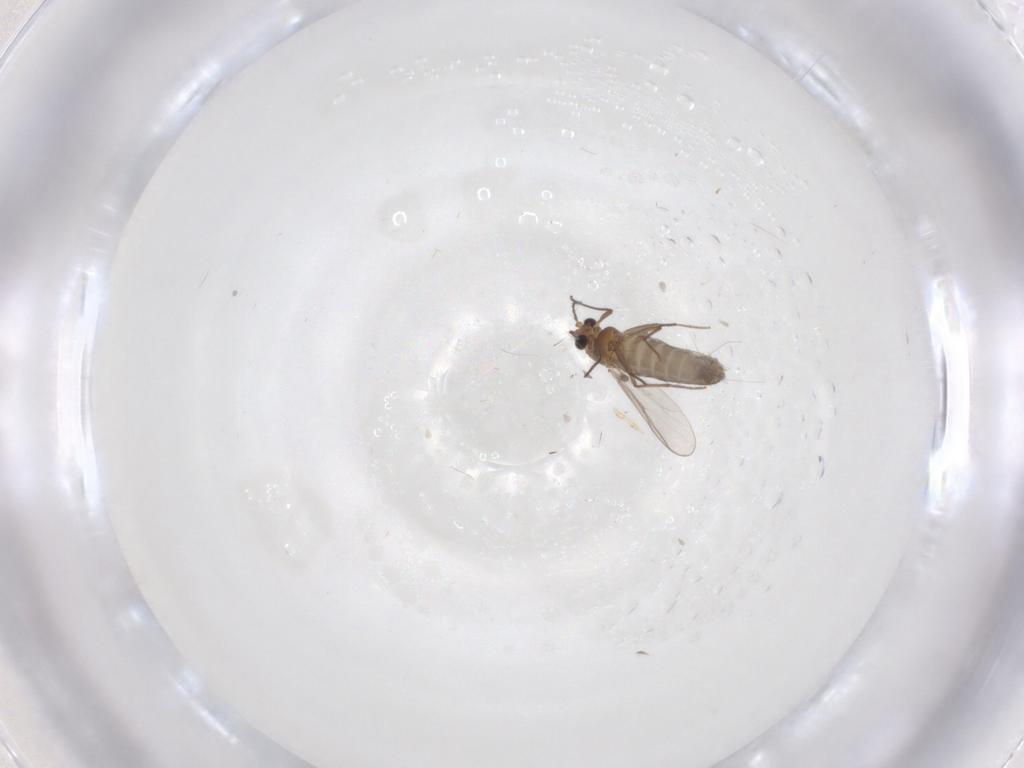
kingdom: Animalia
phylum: Arthropoda
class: Insecta
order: Diptera
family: Chironomidae
